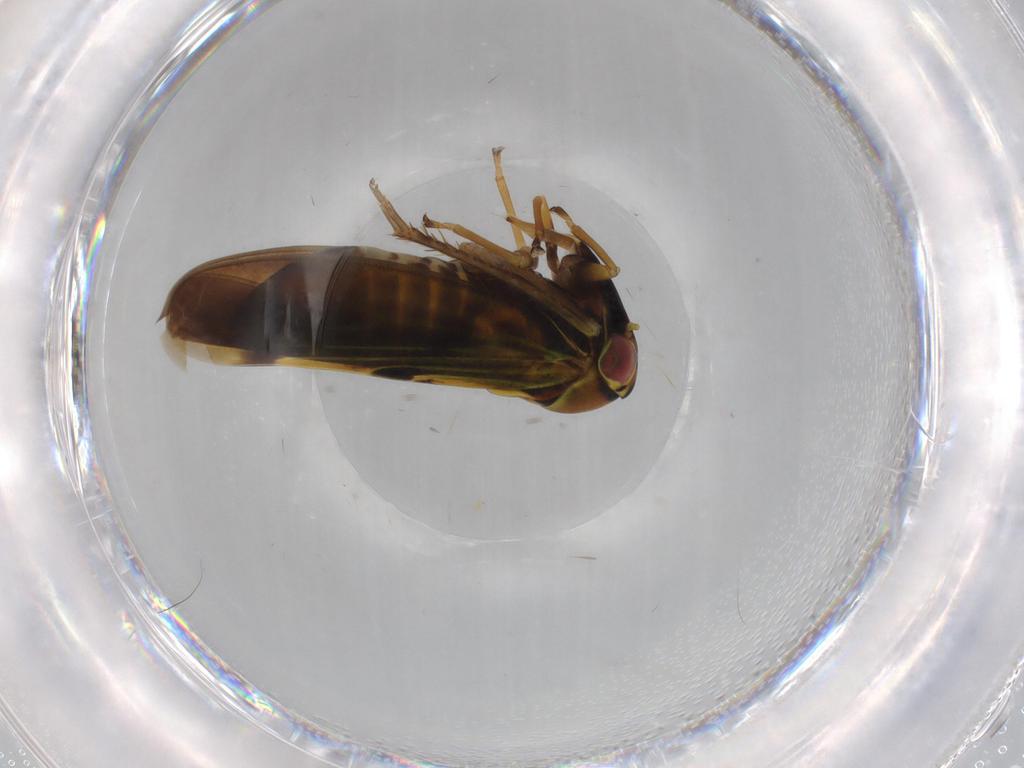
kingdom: Animalia
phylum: Arthropoda
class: Insecta
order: Hemiptera
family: Cicadellidae
